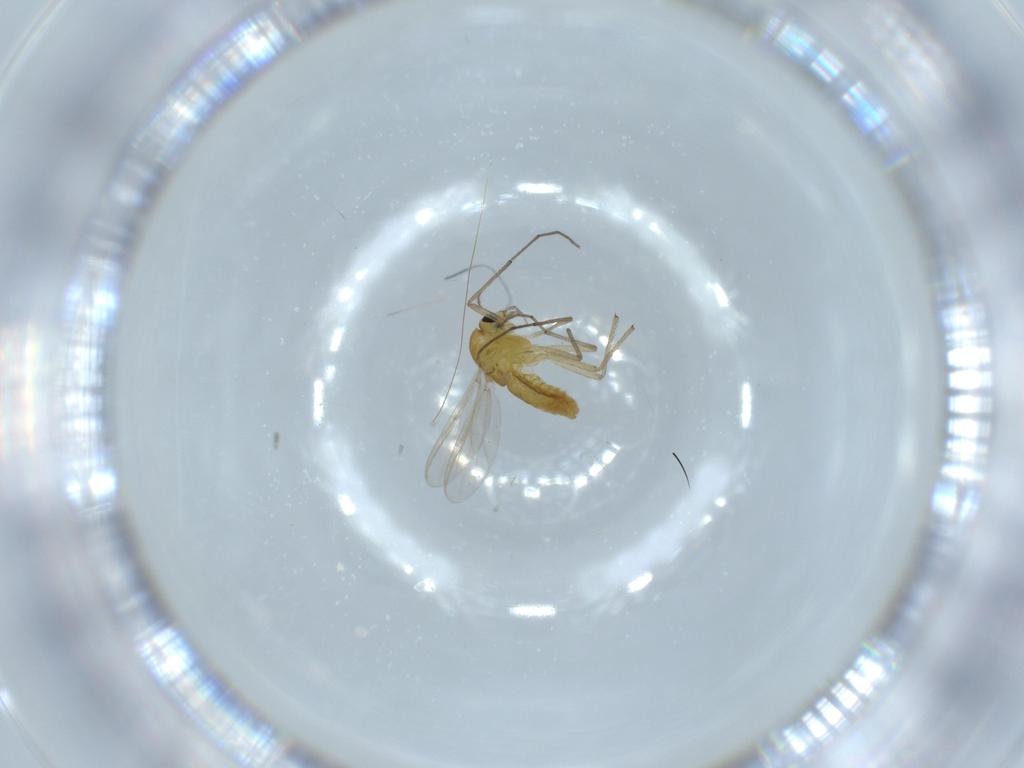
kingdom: Animalia
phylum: Arthropoda
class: Insecta
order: Diptera
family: Chironomidae
